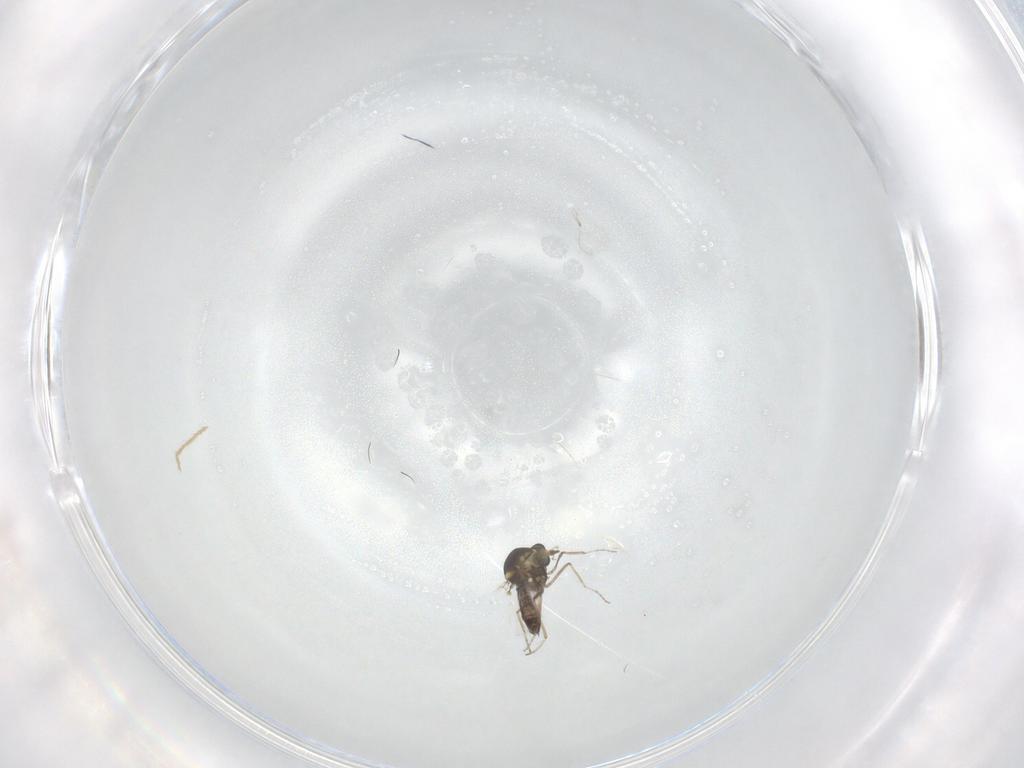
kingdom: Animalia
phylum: Arthropoda
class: Insecta
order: Diptera
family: Ceratopogonidae
